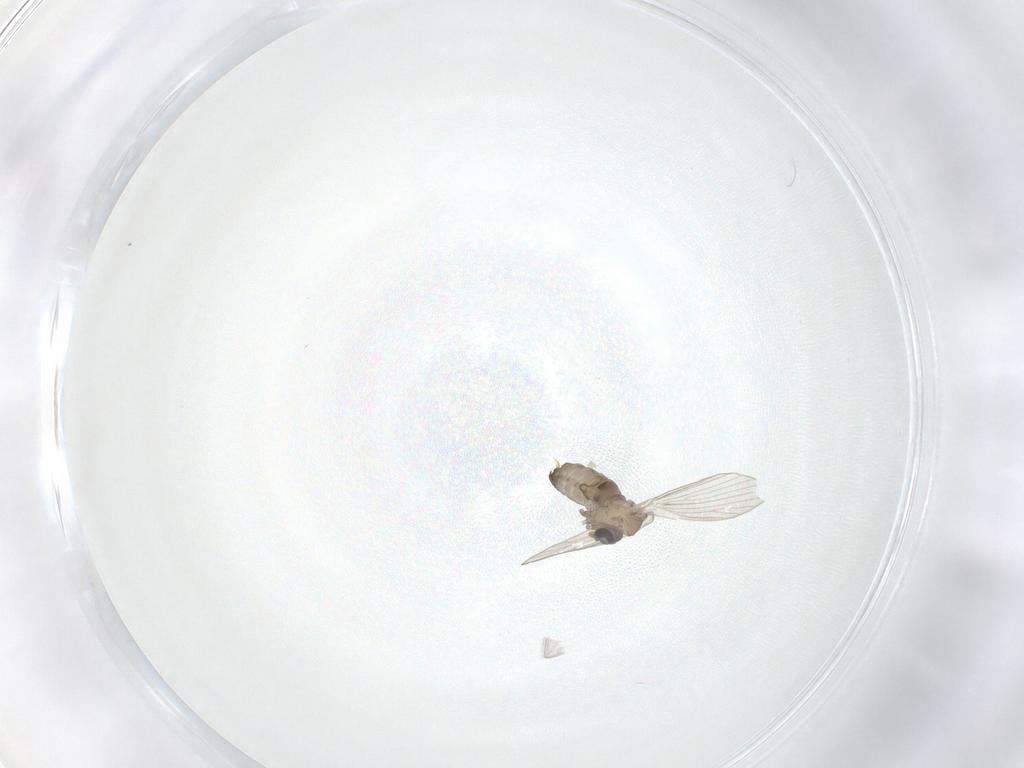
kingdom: Animalia
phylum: Arthropoda
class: Insecta
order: Diptera
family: Psychodidae
